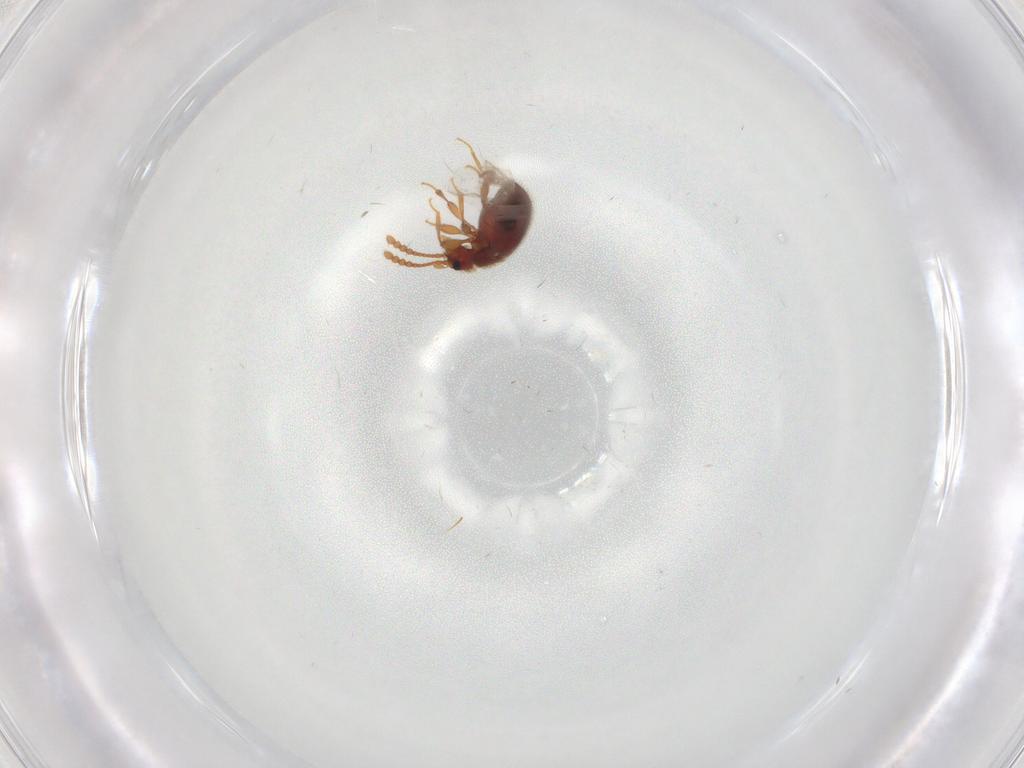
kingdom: Animalia
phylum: Arthropoda
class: Insecta
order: Coleoptera
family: Staphylinidae
